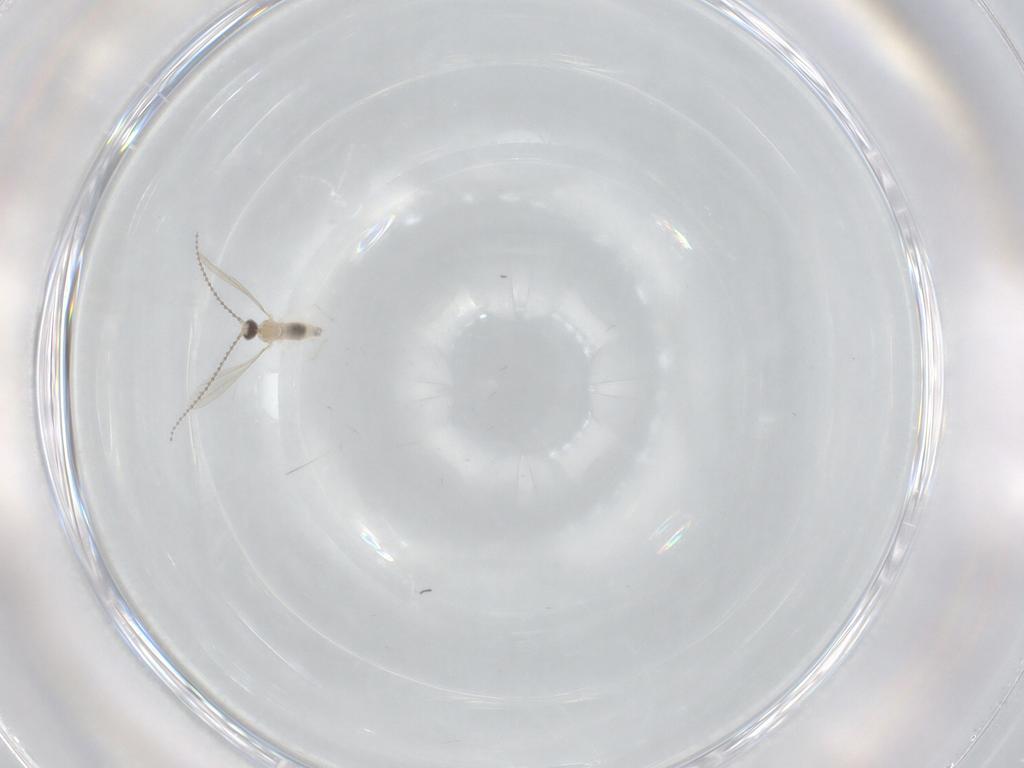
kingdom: Animalia
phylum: Arthropoda
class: Insecta
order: Diptera
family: Cecidomyiidae
